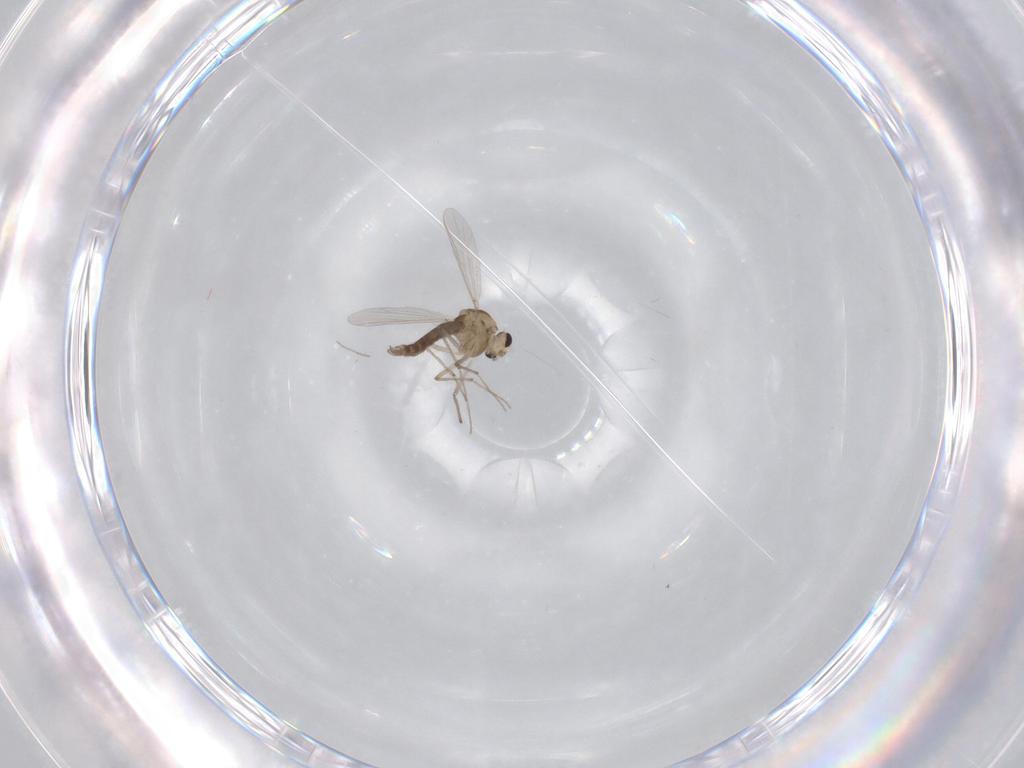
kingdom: Animalia
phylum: Arthropoda
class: Insecta
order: Diptera
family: Chironomidae
